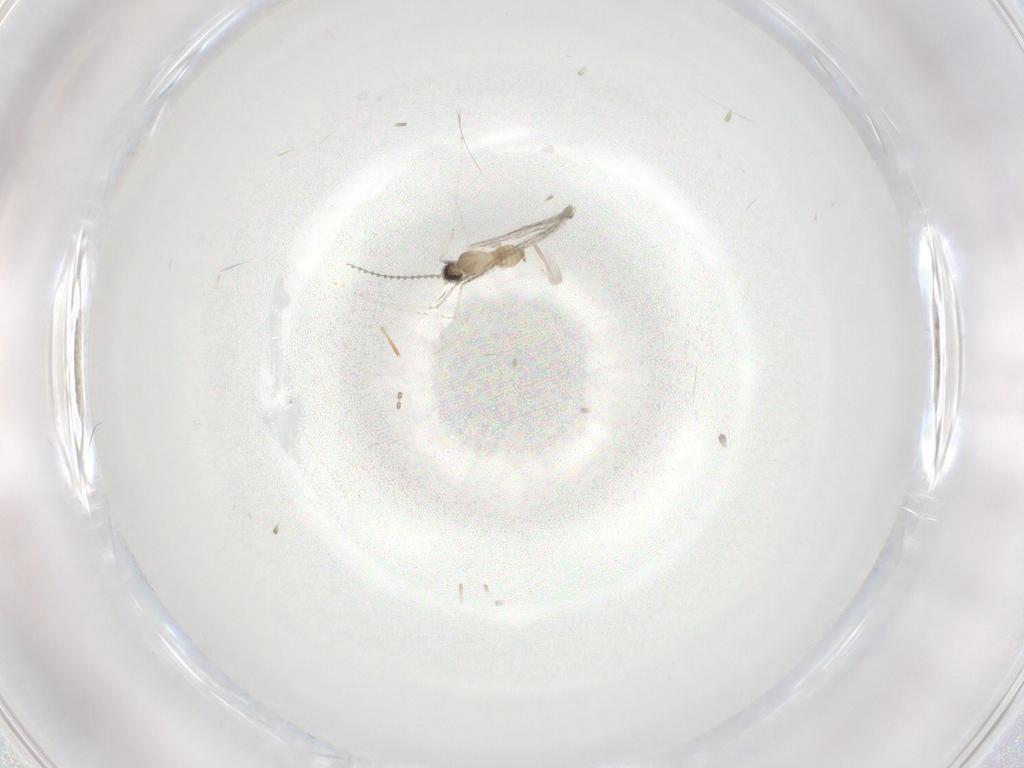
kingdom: Animalia
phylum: Arthropoda
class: Insecta
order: Diptera
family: Cecidomyiidae
